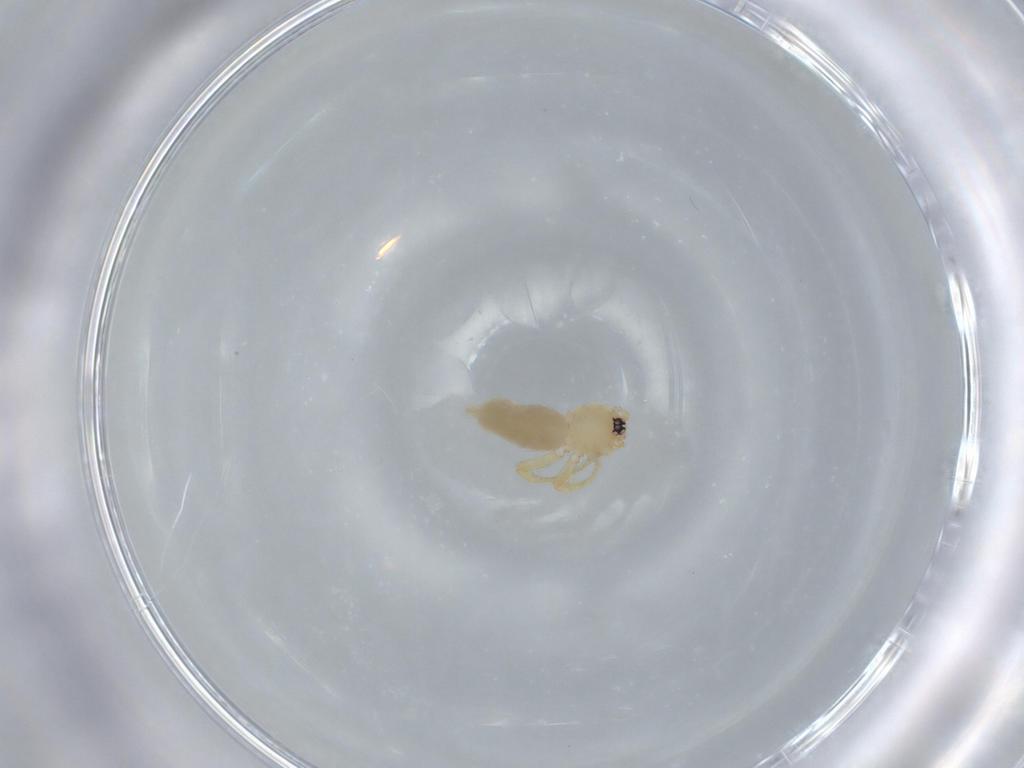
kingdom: Animalia
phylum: Arthropoda
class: Arachnida
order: Araneae
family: Oonopidae
